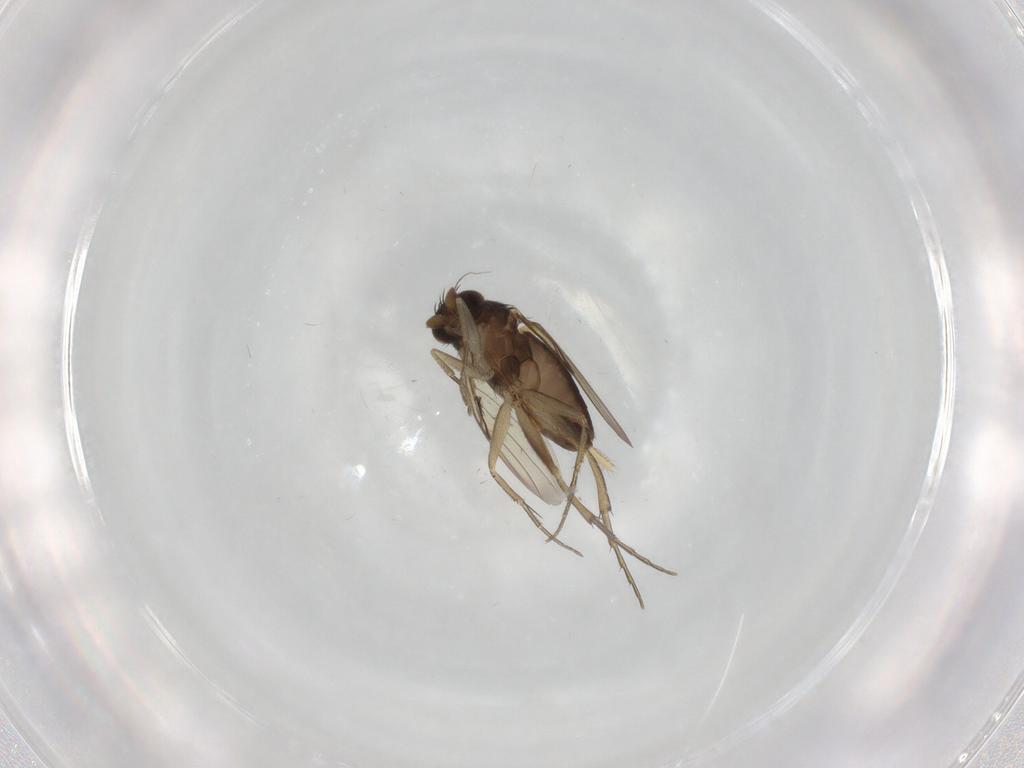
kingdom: Animalia
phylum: Arthropoda
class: Insecta
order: Diptera
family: Phoridae
